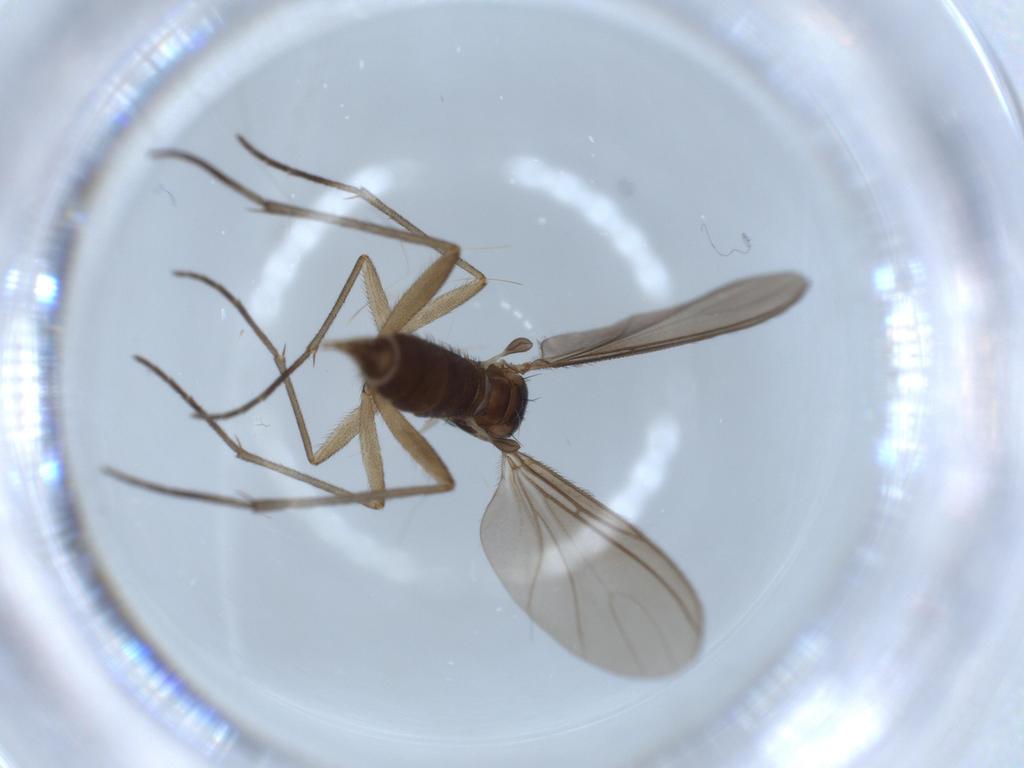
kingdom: Animalia
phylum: Arthropoda
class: Insecta
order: Diptera
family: Sciaridae
